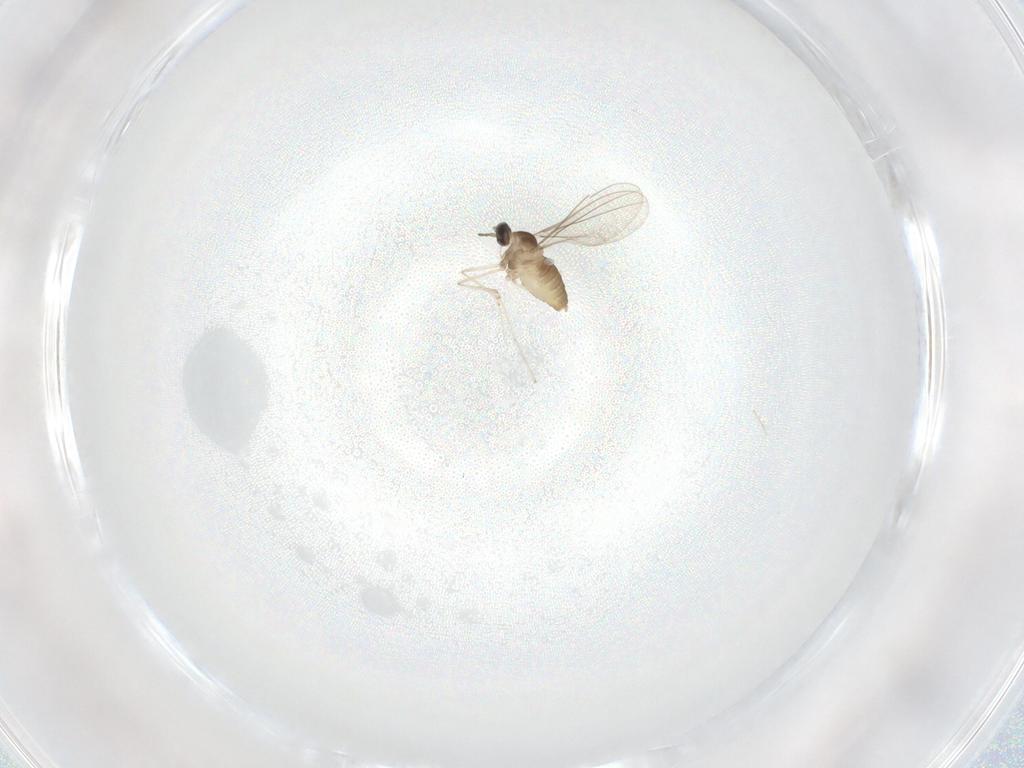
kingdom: Animalia
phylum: Arthropoda
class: Insecta
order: Diptera
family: Cecidomyiidae
